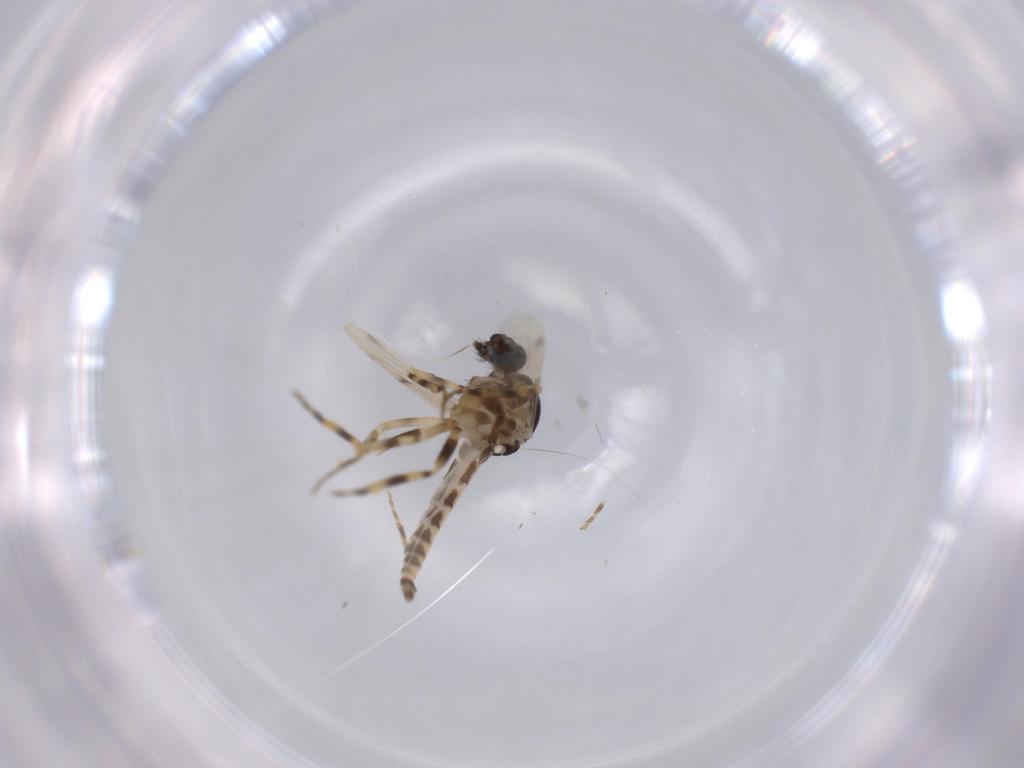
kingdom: Animalia
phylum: Arthropoda
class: Insecta
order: Diptera
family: Cecidomyiidae
